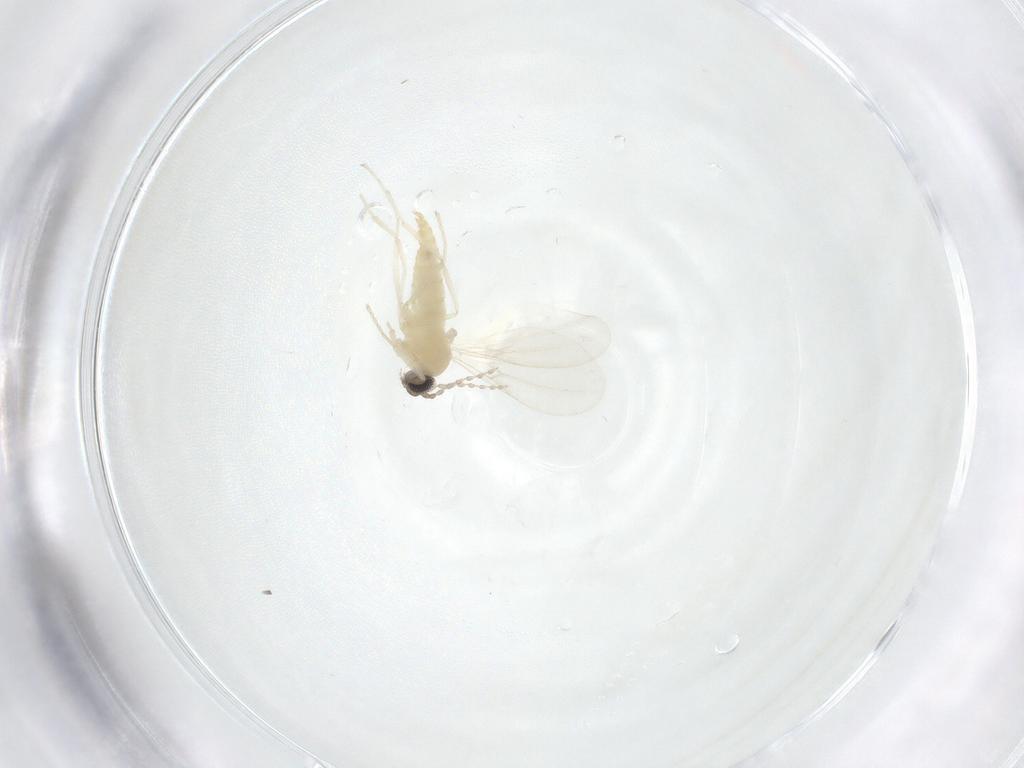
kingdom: Animalia
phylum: Arthropoda
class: Insecta
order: Diptera
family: Cecidomyiidae
